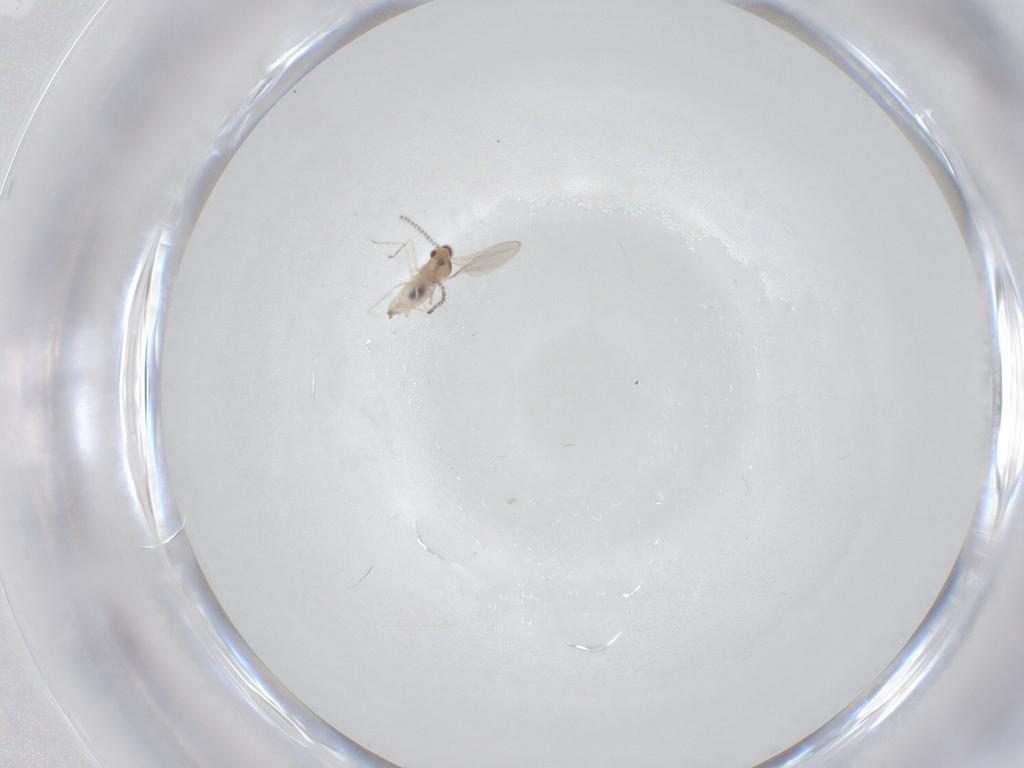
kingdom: Animalia
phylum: Arthropoda
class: Insecta
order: Diptera
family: Cecidomyiidae
